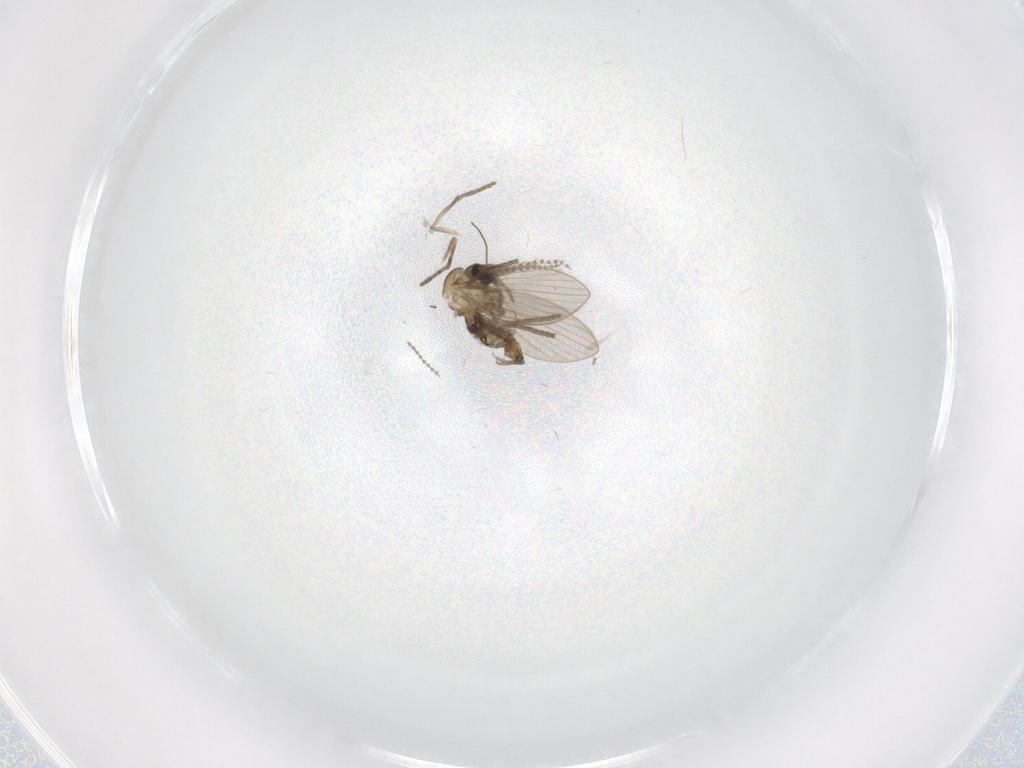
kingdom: Animalia
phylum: Arthropoda
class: Insecta
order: Diptera
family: Psychodidae
